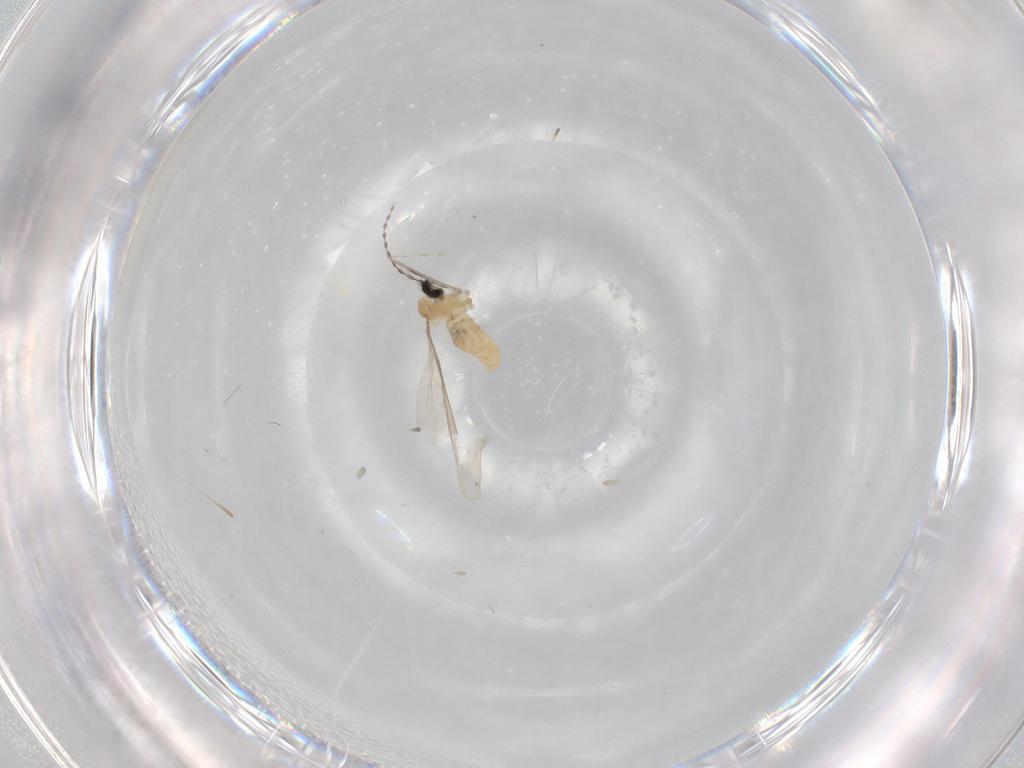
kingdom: Animalia
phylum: Arthropoda
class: Insecta
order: Diptera
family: Cecidomyiidae
